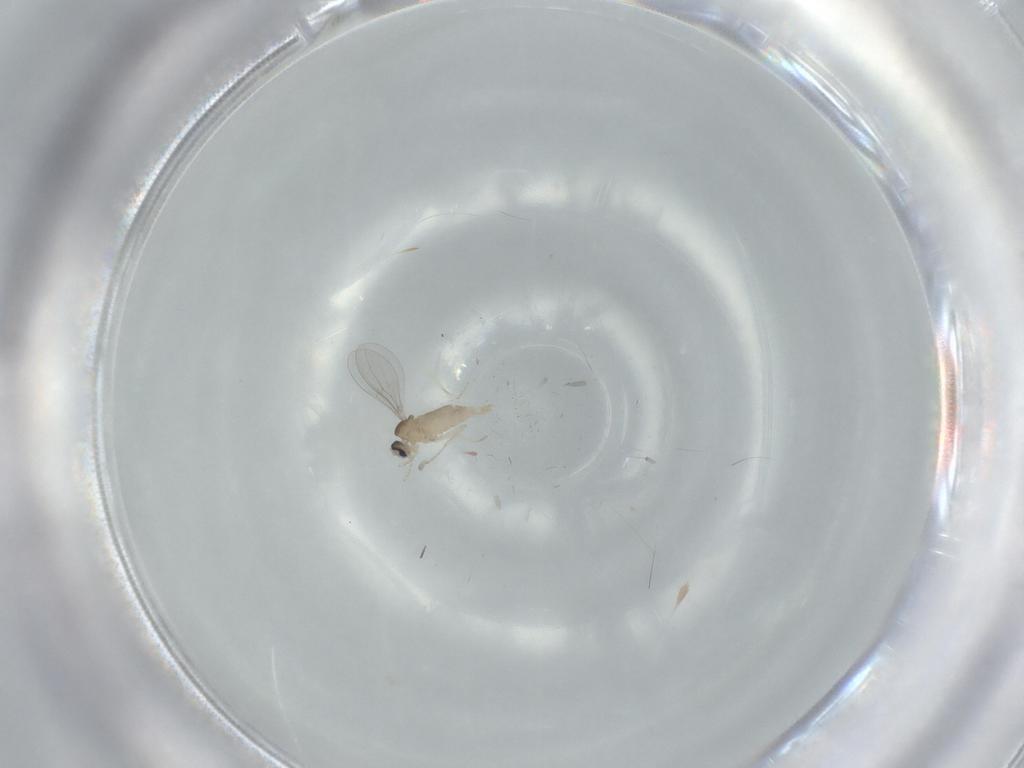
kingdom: Animalia
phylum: Arthropoda
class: Insecta
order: Diptera
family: Cecidomyiidae
